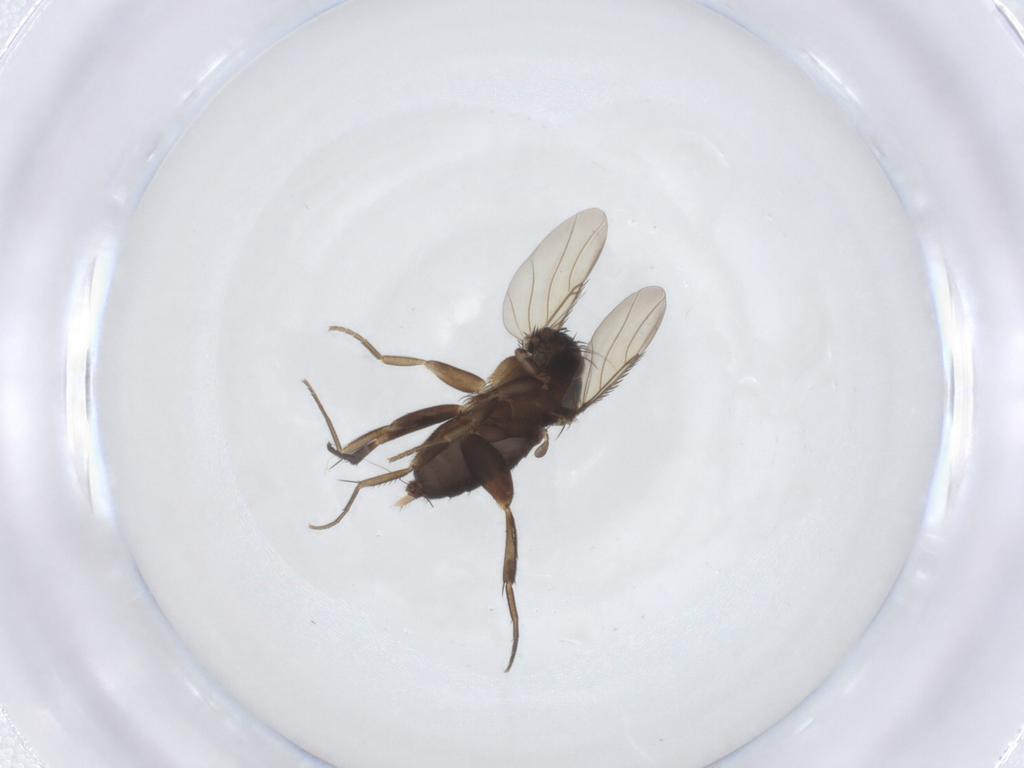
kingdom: Animalia
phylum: Arthropoda
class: Insecta
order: Diptera
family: Phoridae
